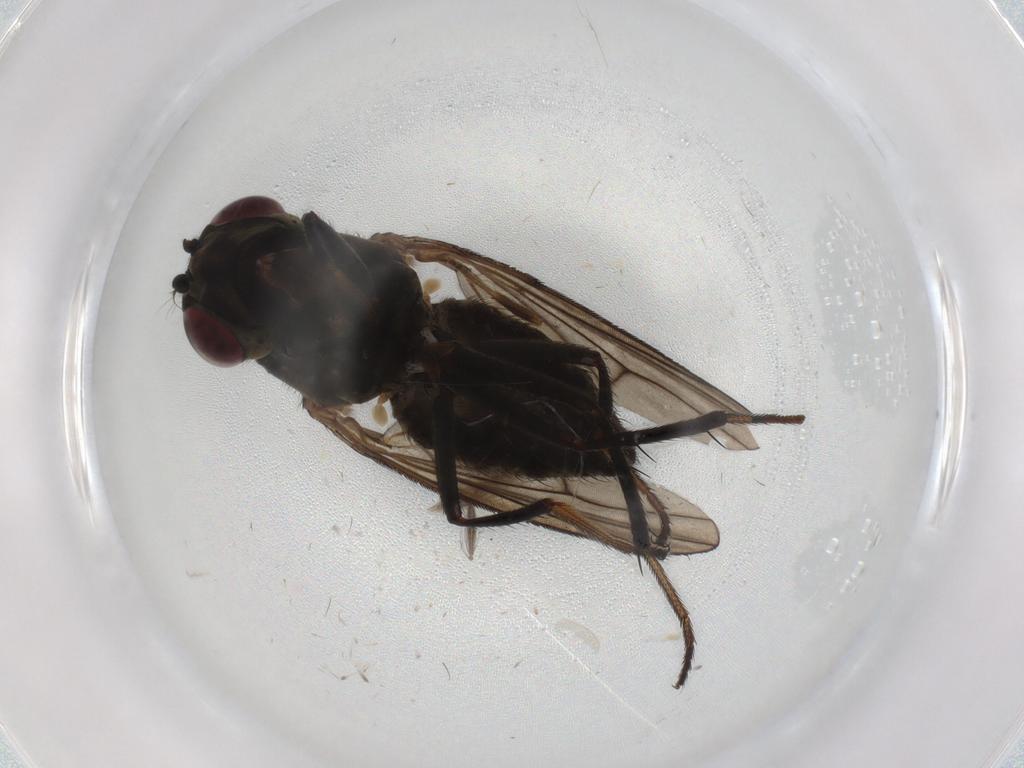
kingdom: Animalia
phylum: Arthropoda
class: Insecta
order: Diptera
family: Ephydridae
